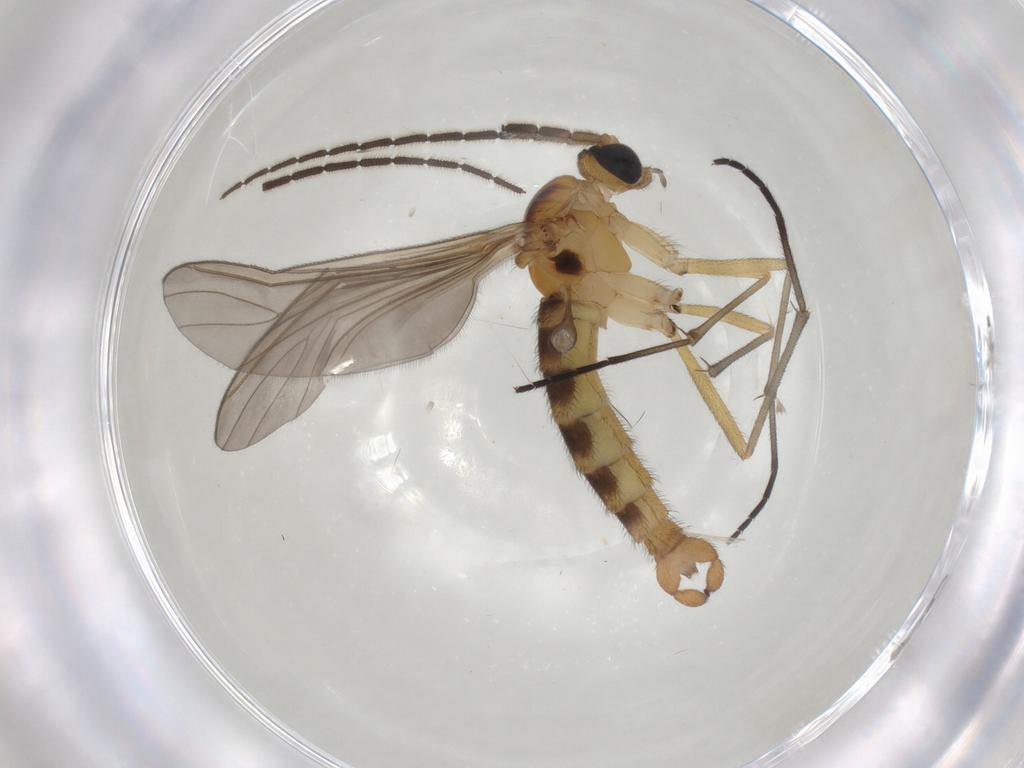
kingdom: Animalia
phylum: Arthropoda
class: Insecta
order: Diptera
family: Sciaridae
